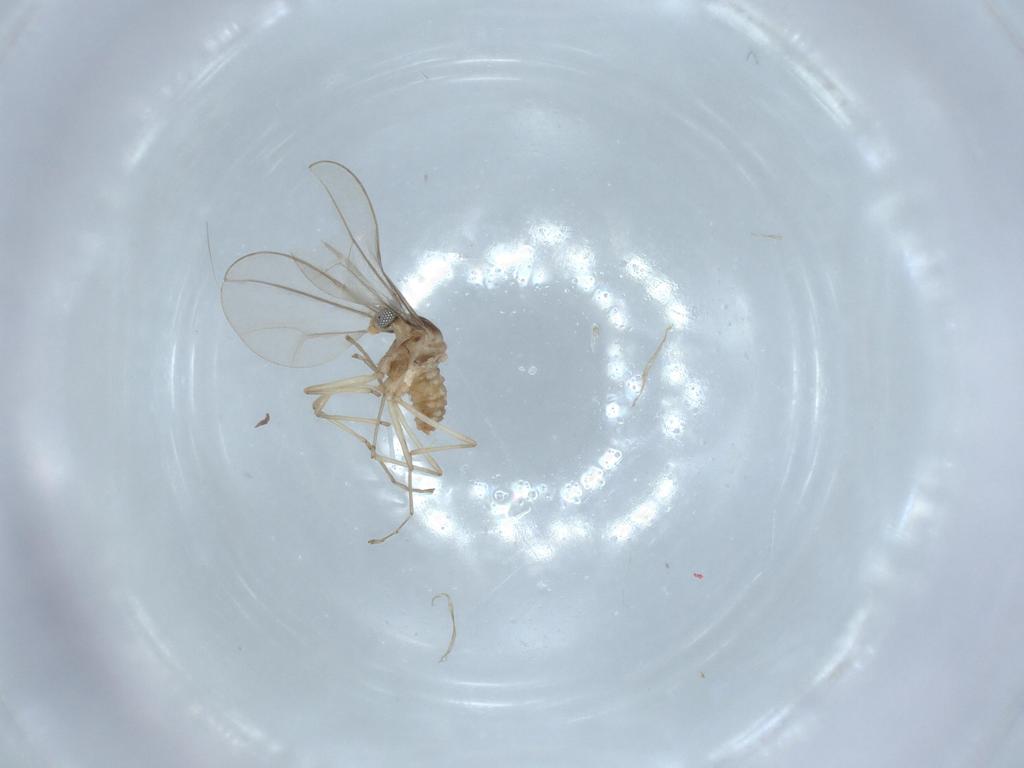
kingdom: Animalia
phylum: Arthropoda
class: Insecta
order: Diptera
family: Cecidomyiidae
